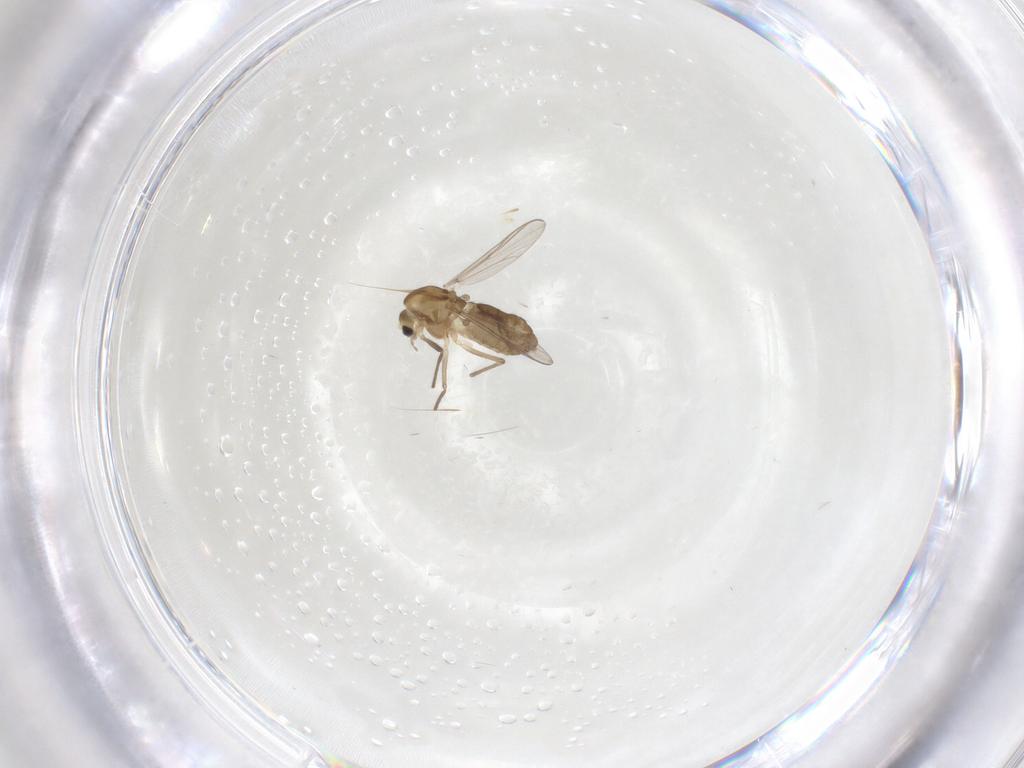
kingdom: Animalia
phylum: Arthropoda
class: Insecta
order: Diptera
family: Chironomidae
